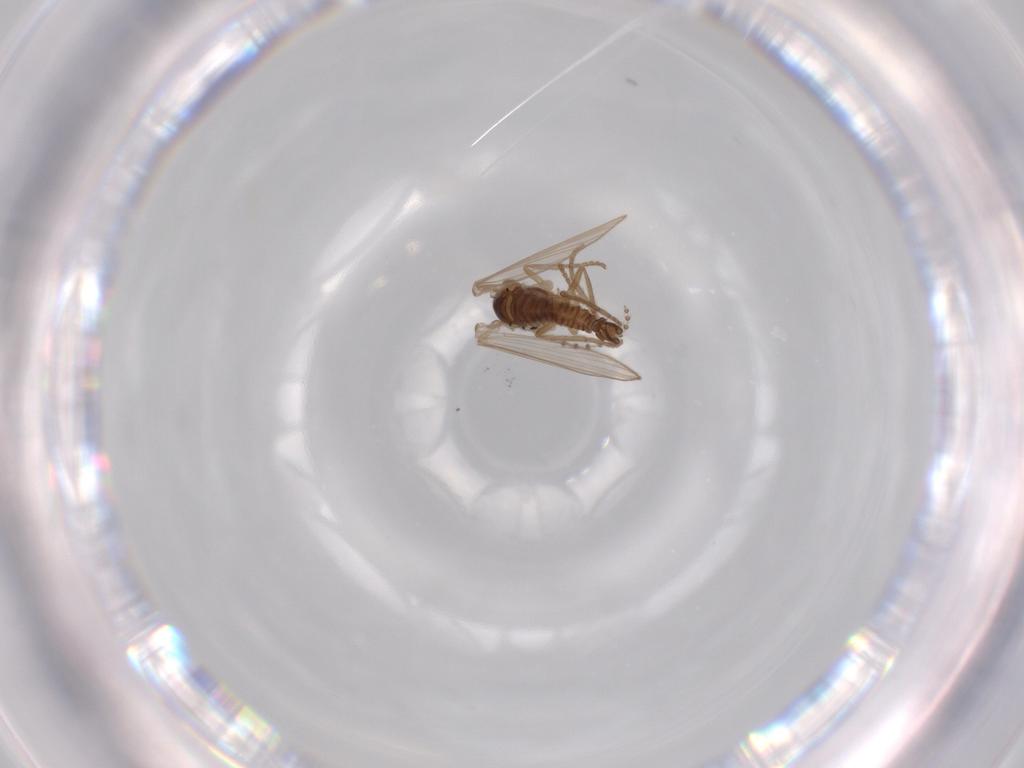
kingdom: Animalia
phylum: Arthropoda
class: Insecta
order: Diptera
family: Psychodidae
